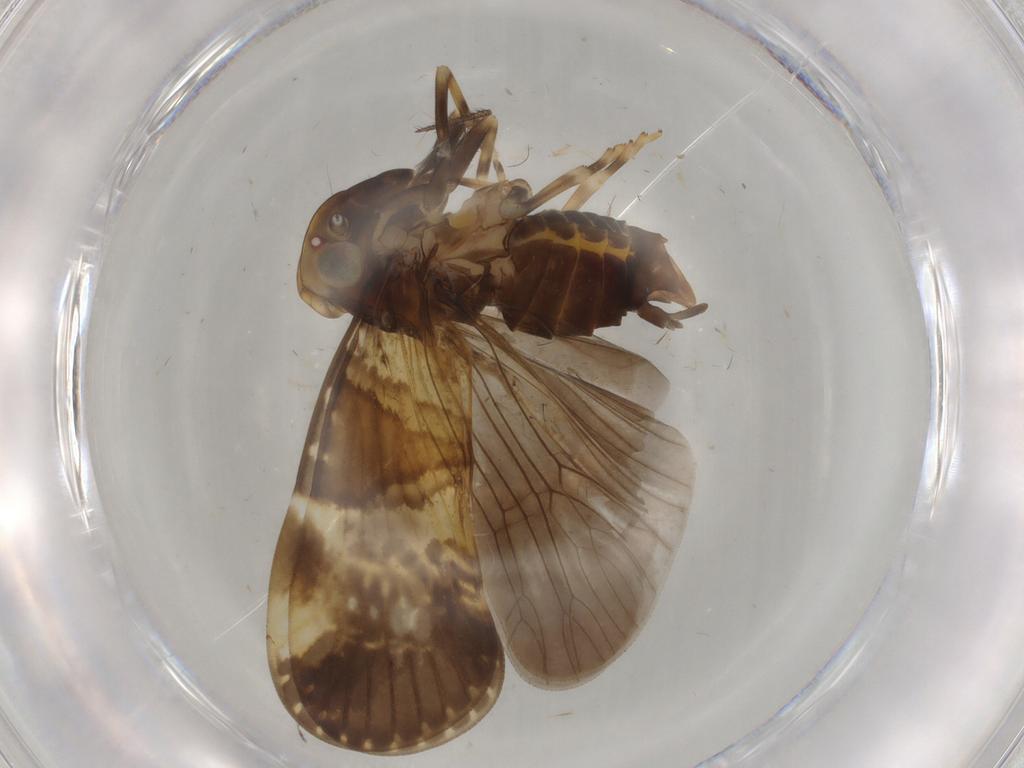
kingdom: Animalia
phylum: Arthropoda
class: Insecta
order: Hemiptera
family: Cixiidae
